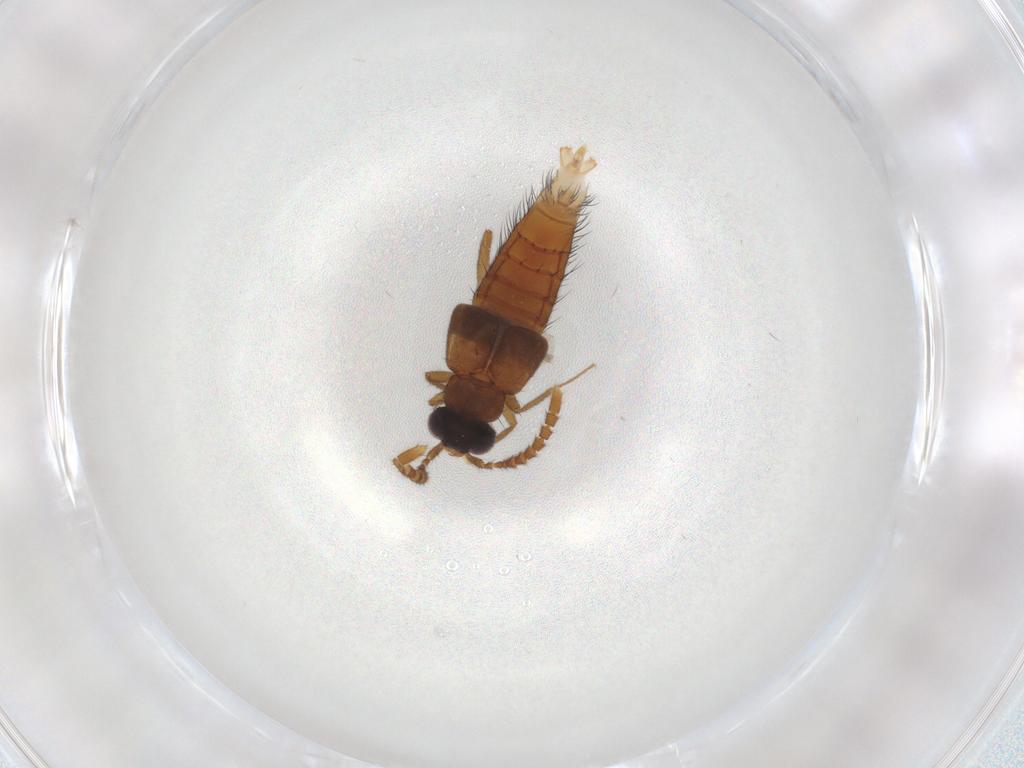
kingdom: Animalia
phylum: Arthropoda
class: Insecta
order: Coleoptera
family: Staphylinidae
